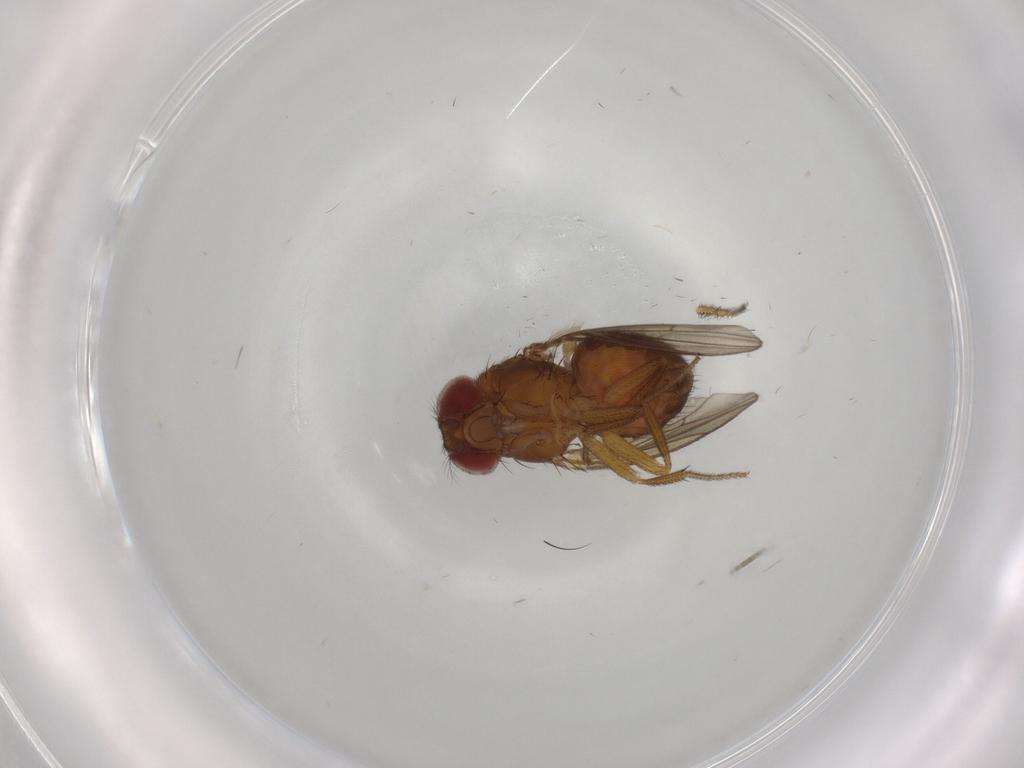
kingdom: Animalia
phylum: Arthropoda
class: Insecta
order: Diptera
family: Drosophilidae
